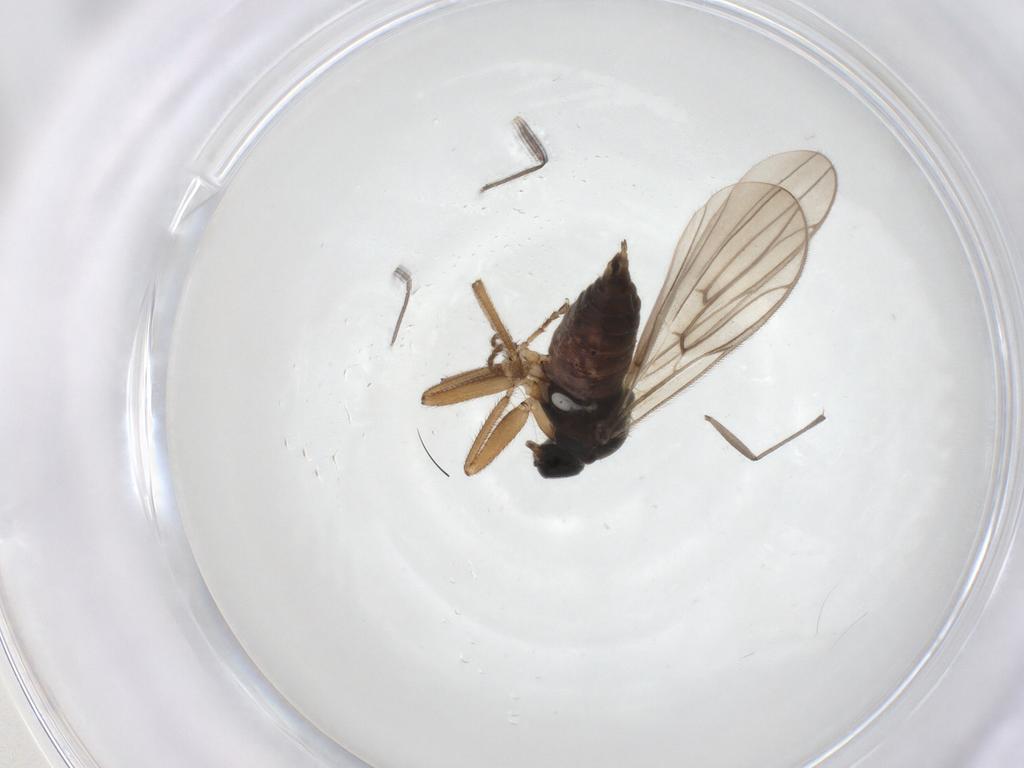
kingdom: Animalia
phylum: Arthropoda
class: Insecta
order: Diptera
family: Hybotidae
